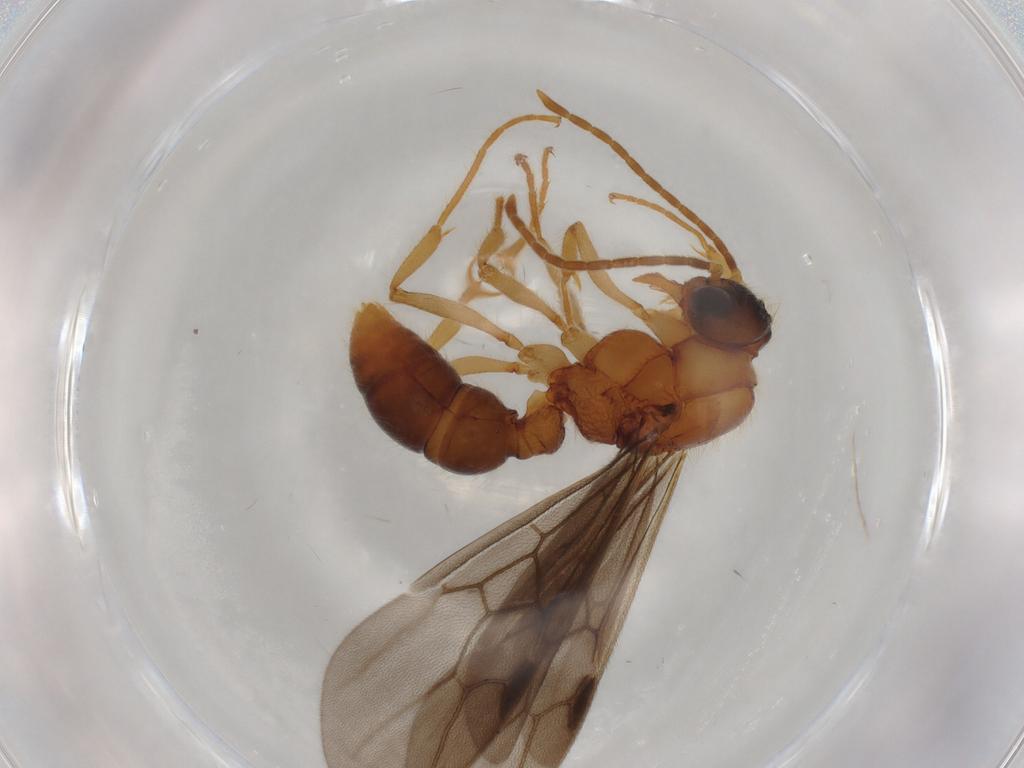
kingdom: Animalia
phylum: Arthropoda
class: Insecta
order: Hymenoptera
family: Formicidae
